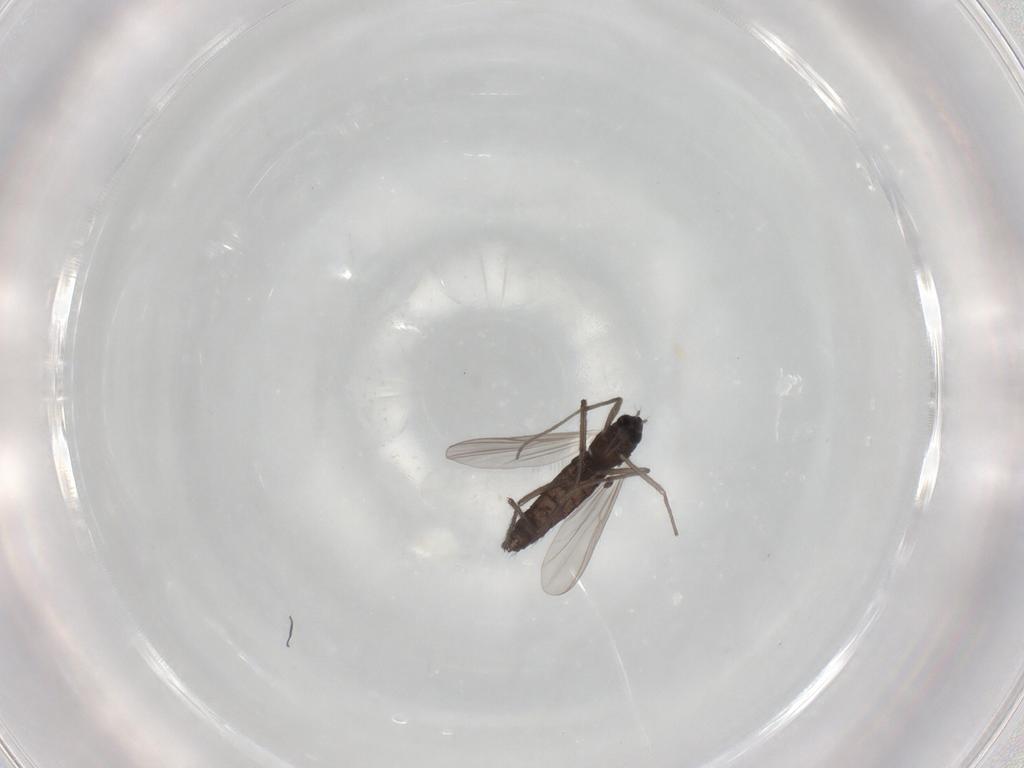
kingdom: Animalia
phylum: Arthropoda
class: Insecta
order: Diptera
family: Chironomidae
